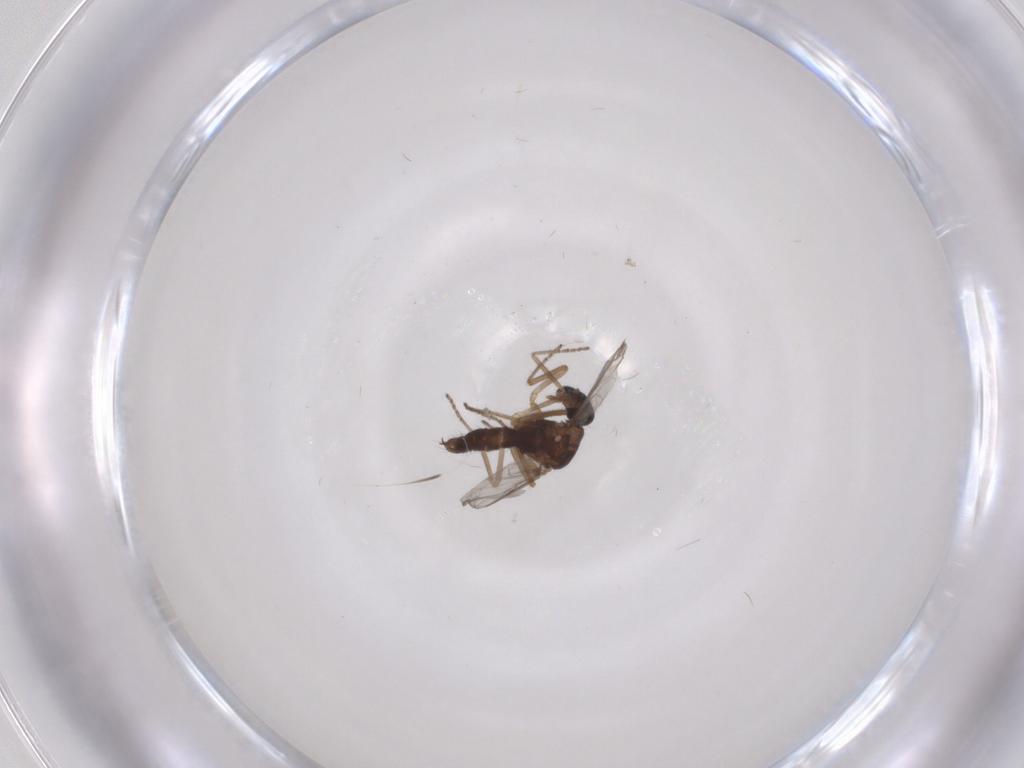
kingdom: Animalia
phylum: Arthropoda
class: Insecta
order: Diptera
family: Ceratopogonidae
